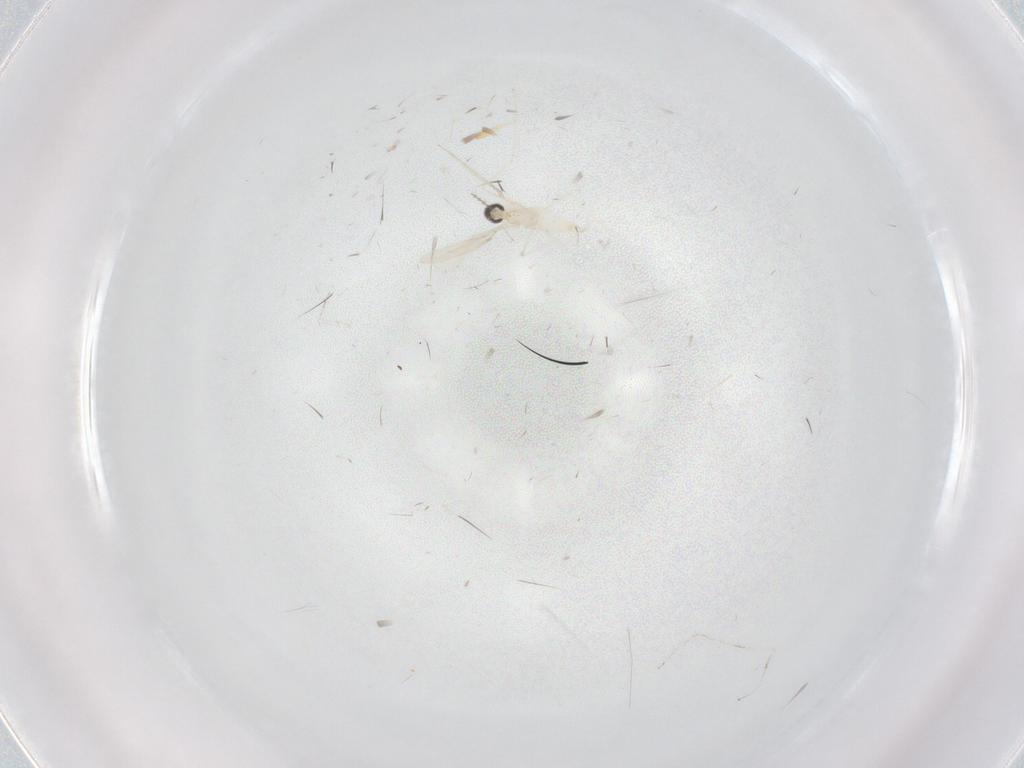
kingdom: Animalia
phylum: Arthropoda
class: Insecta
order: Diptera
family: Cecidomyiidae
